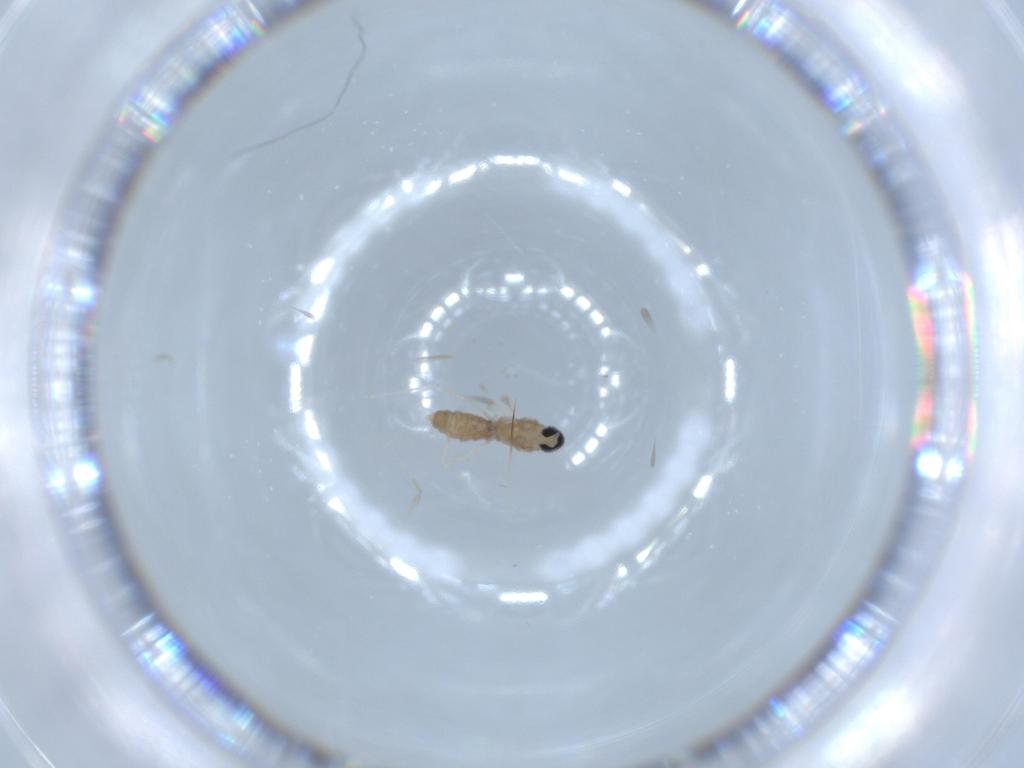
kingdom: Animalia
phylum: Arthropoda
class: Insecta
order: Diptera
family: Cecidomyiidae
